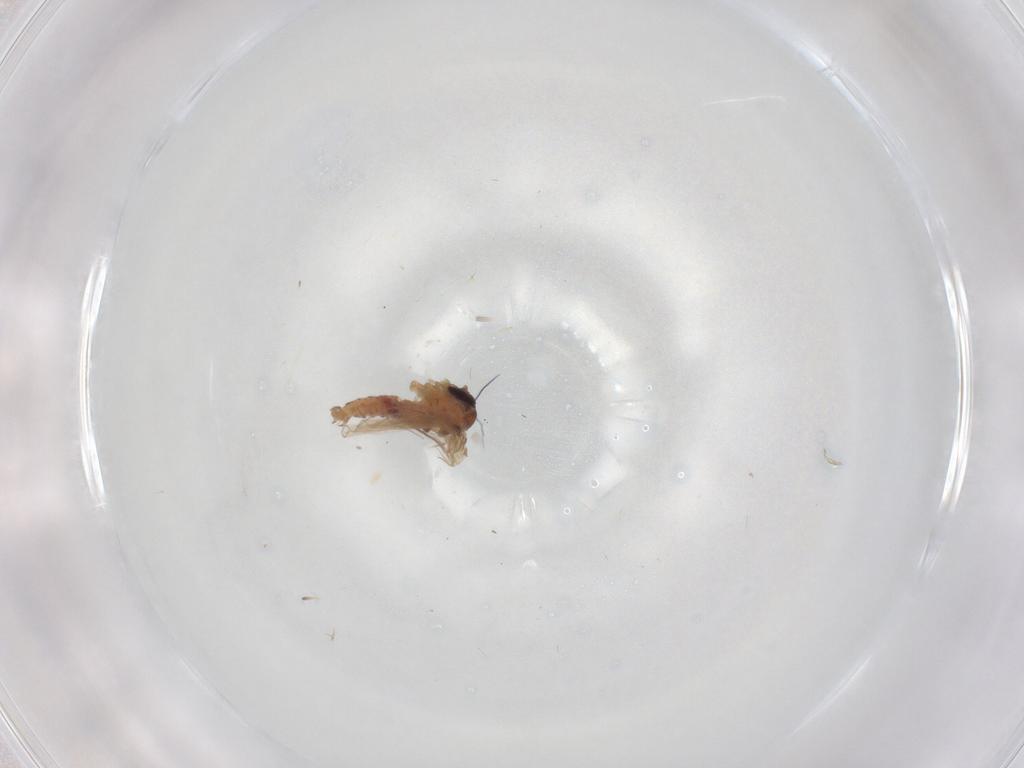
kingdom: Animalia
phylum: Arthropoda
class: Insecta
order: Diptera
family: Psychodidae
